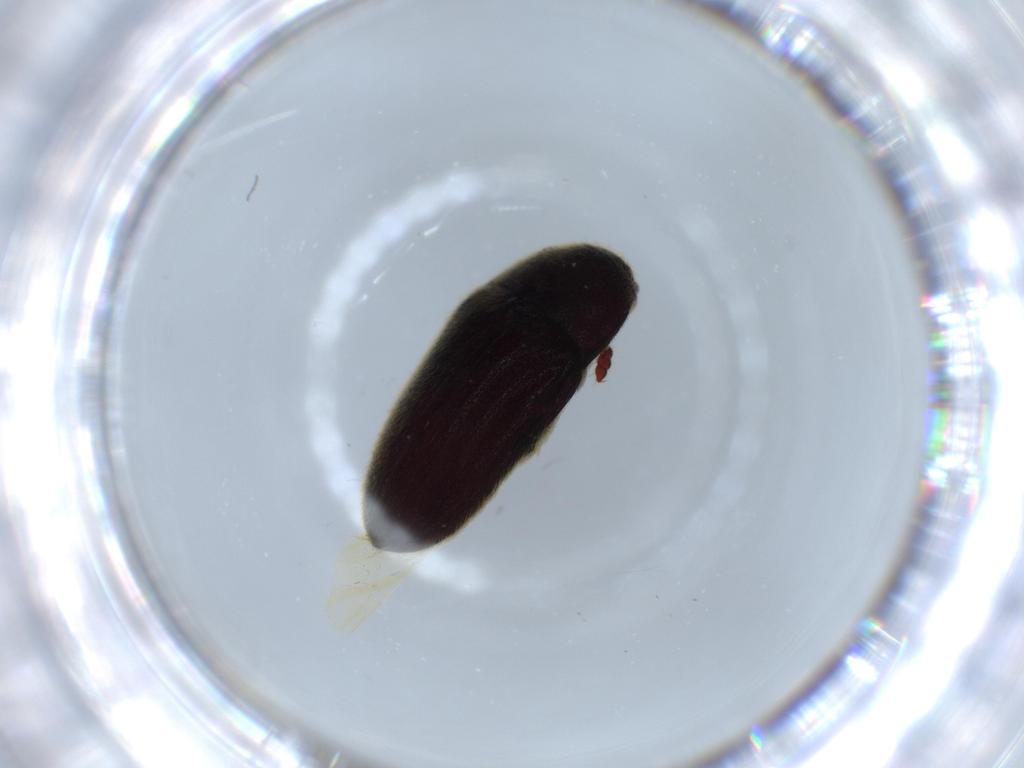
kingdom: Animalia
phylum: Arthropoda
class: Insecta
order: Coleoptera
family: Throscidae
